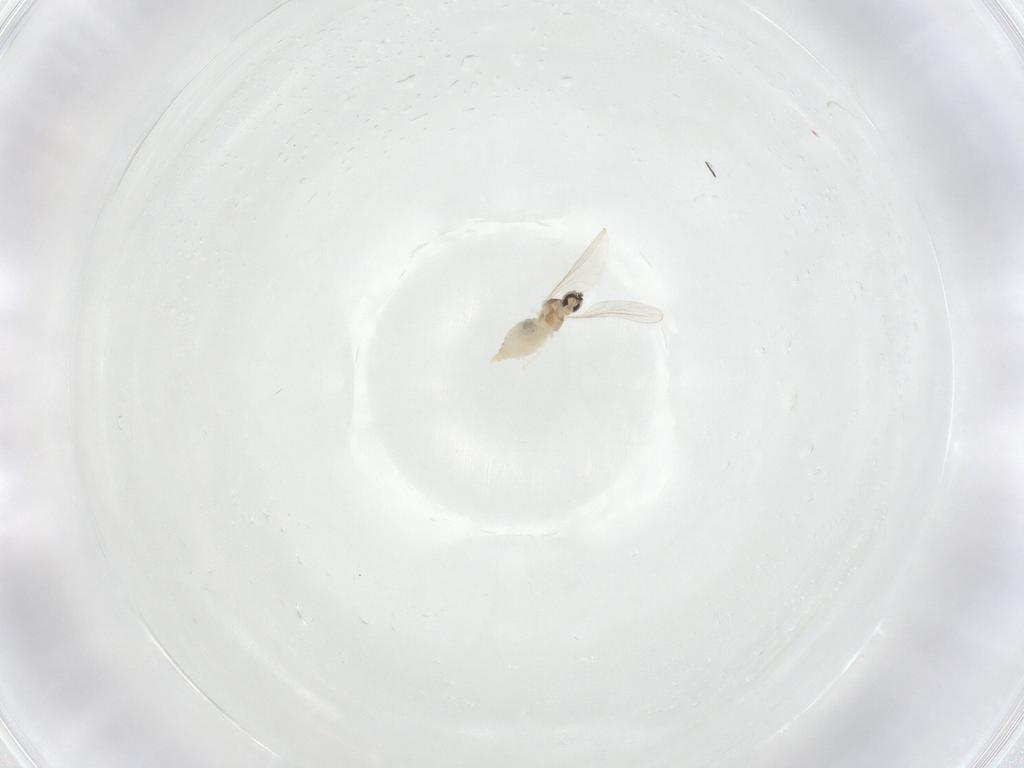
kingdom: Animalia
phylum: Arthropoda
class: Insecta
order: Diptera
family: Cecidomyiidae
